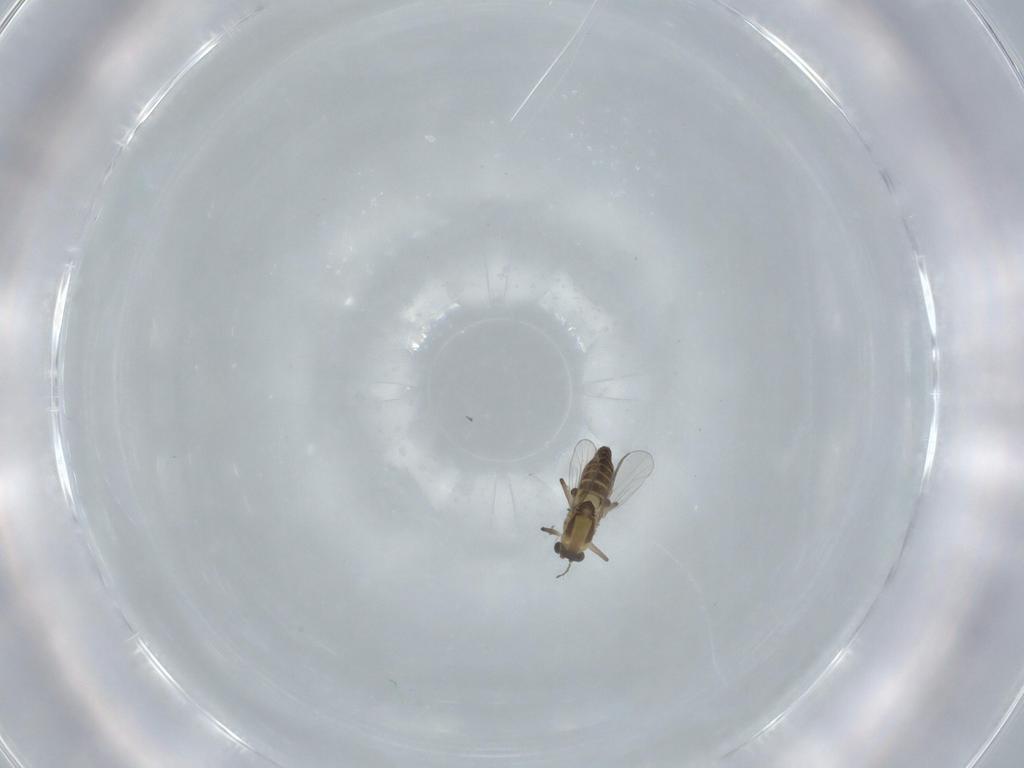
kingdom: Animalia
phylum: Arthropoda
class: Insecta
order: Diptera
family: Chironomidae
